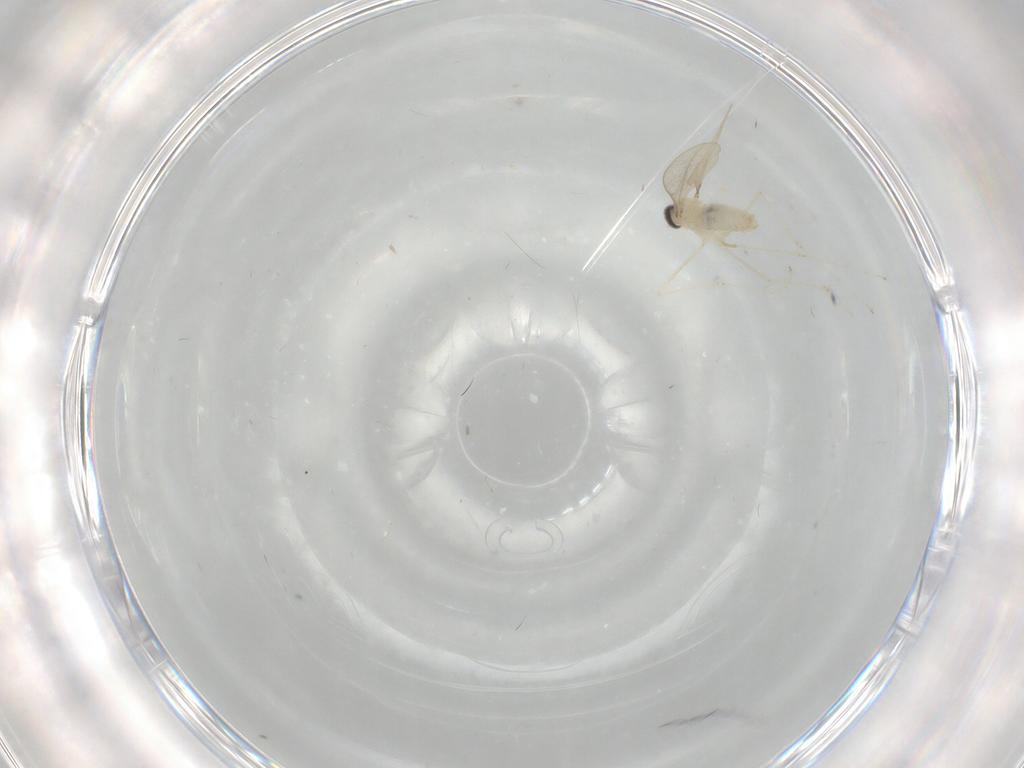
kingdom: Animalia
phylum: Arthropoda
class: Insecta
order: Diptera
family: Cecidomyiidae
